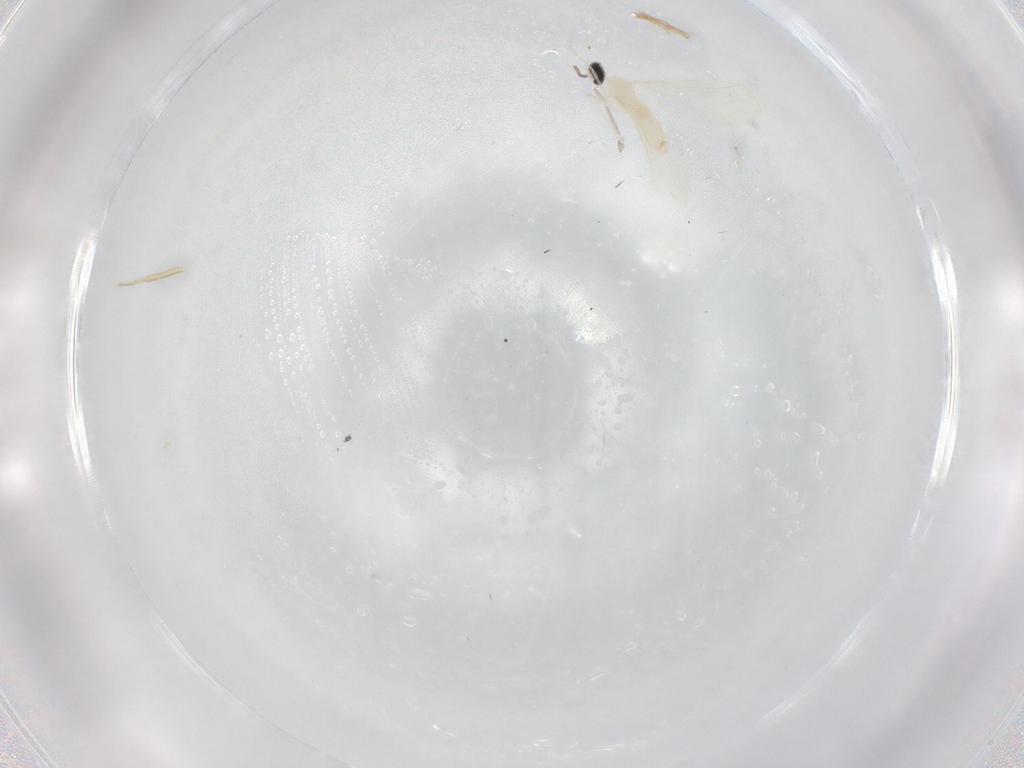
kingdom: Animalia
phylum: Arthropoda
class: Insecta
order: Diptera
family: Cecidomyiidae
